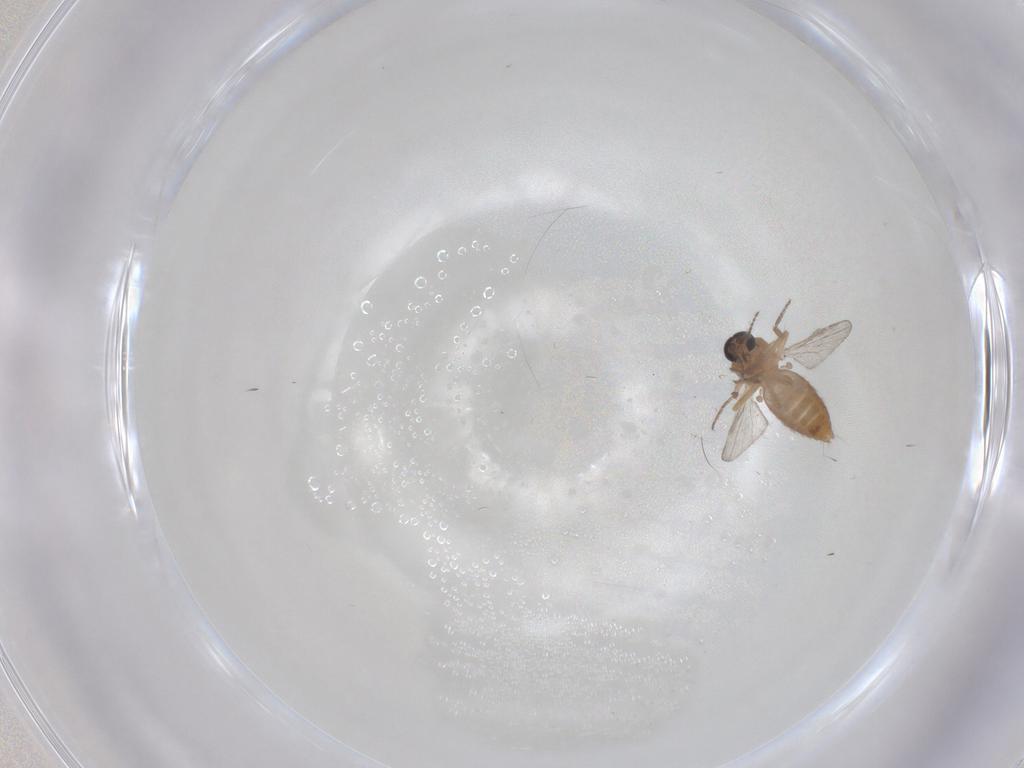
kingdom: Animalia
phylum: Arthropoda
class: Insecta
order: Diptera
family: Ceratopogonidae
